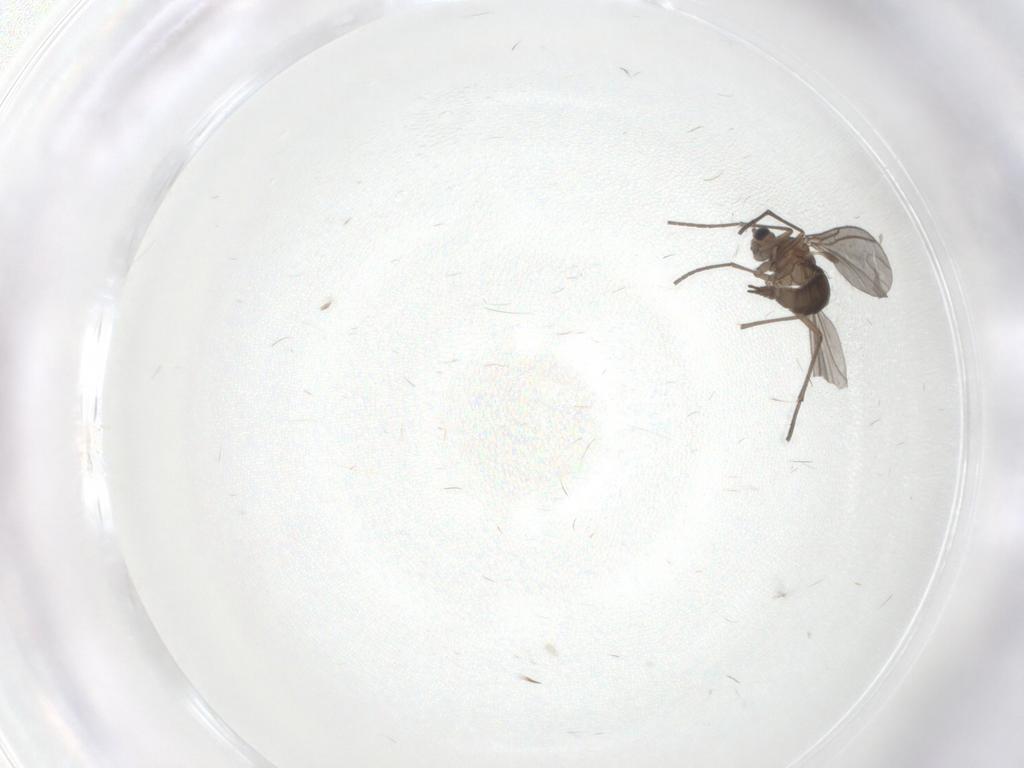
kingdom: Animalia
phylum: Arthropoda
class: Insecta
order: Diptera
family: Sciaridae
